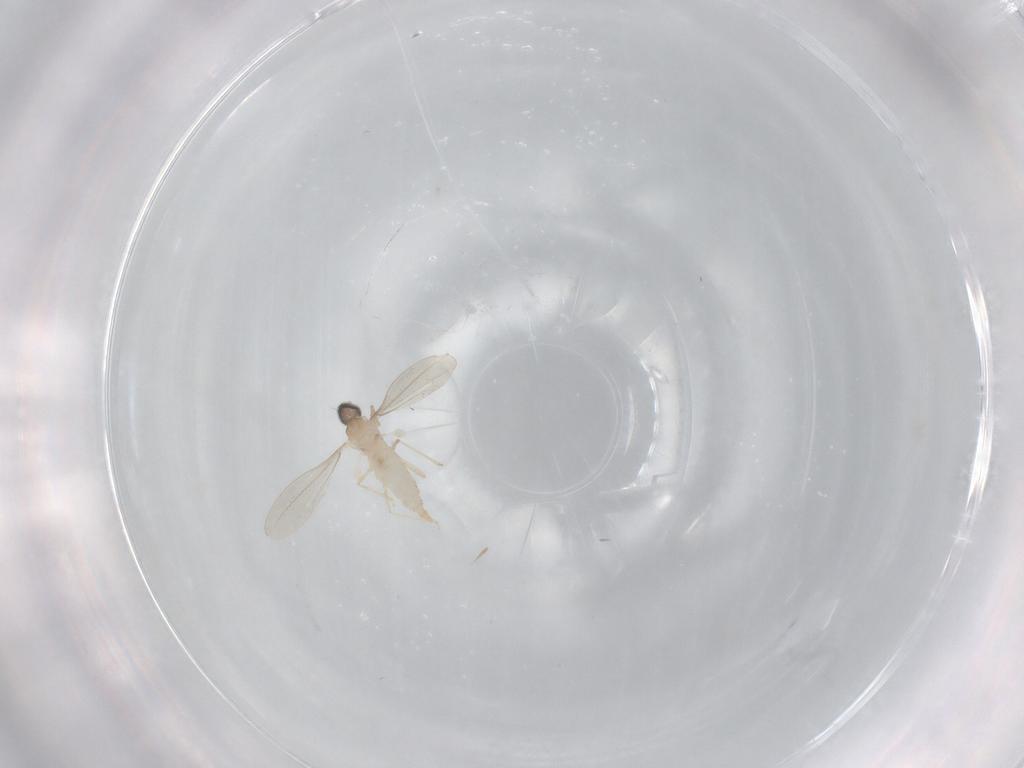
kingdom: Animalia
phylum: Arthropoda
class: Insecta
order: Diptera
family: Cecidomyiidae
